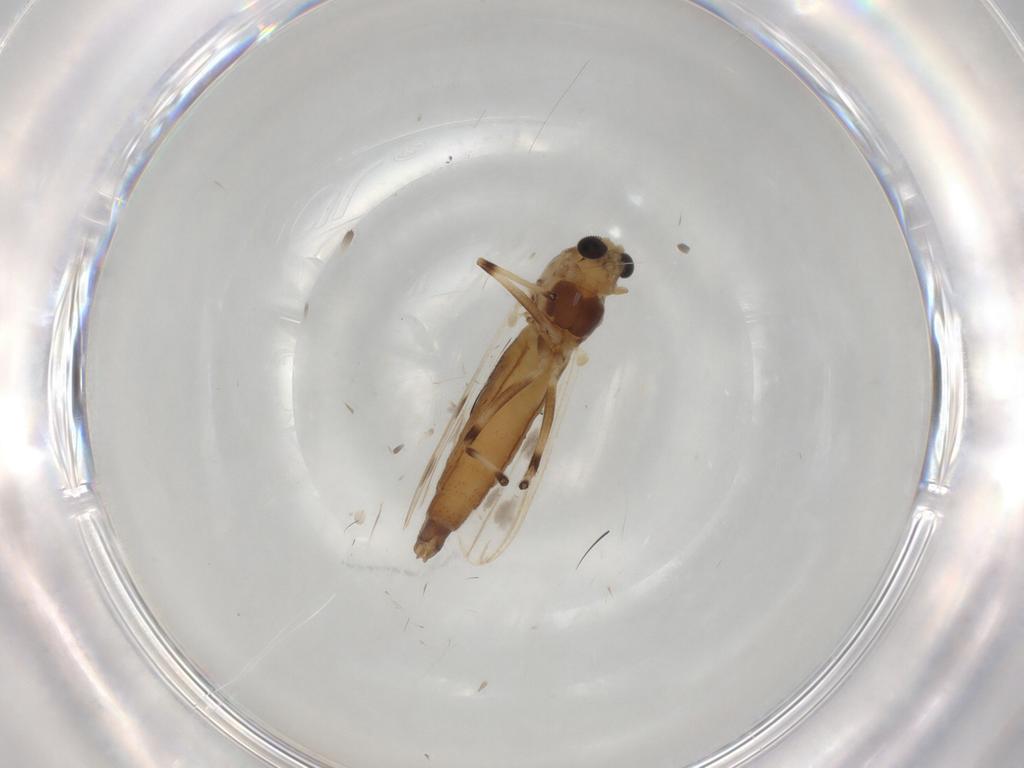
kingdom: Animalia
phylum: Arthropoda
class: Insecta
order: Diptera
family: Chironomidae
